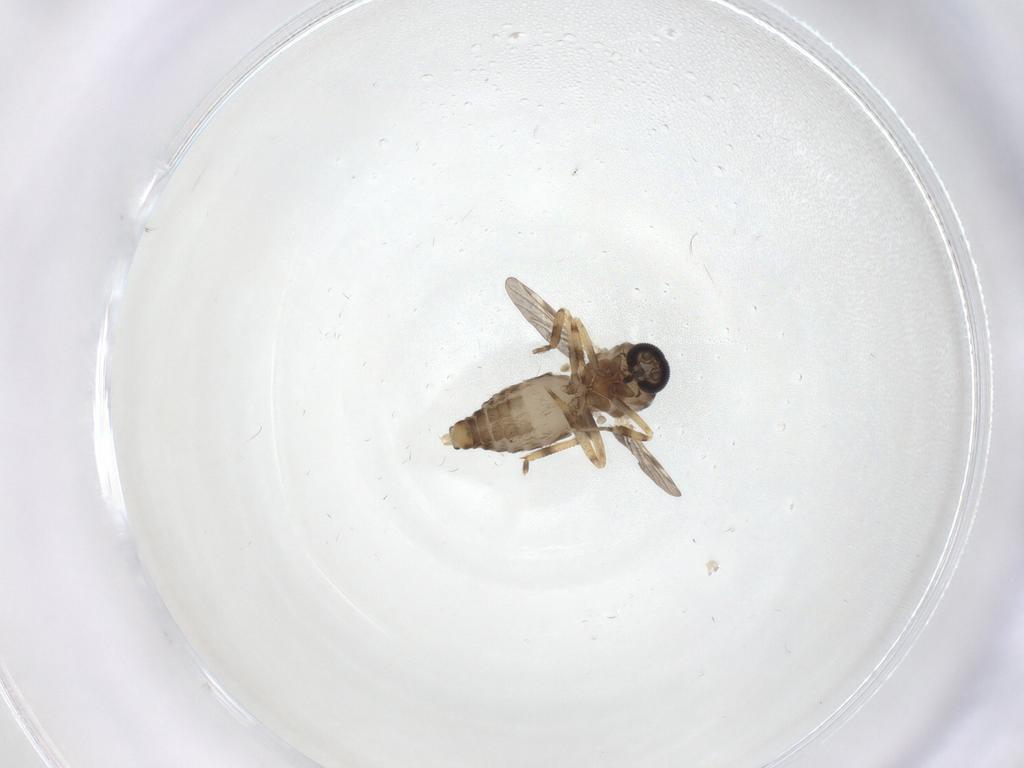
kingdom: Animalia
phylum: Arthropoda
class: Insecta
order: Diptera
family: Ceratopogonidae
